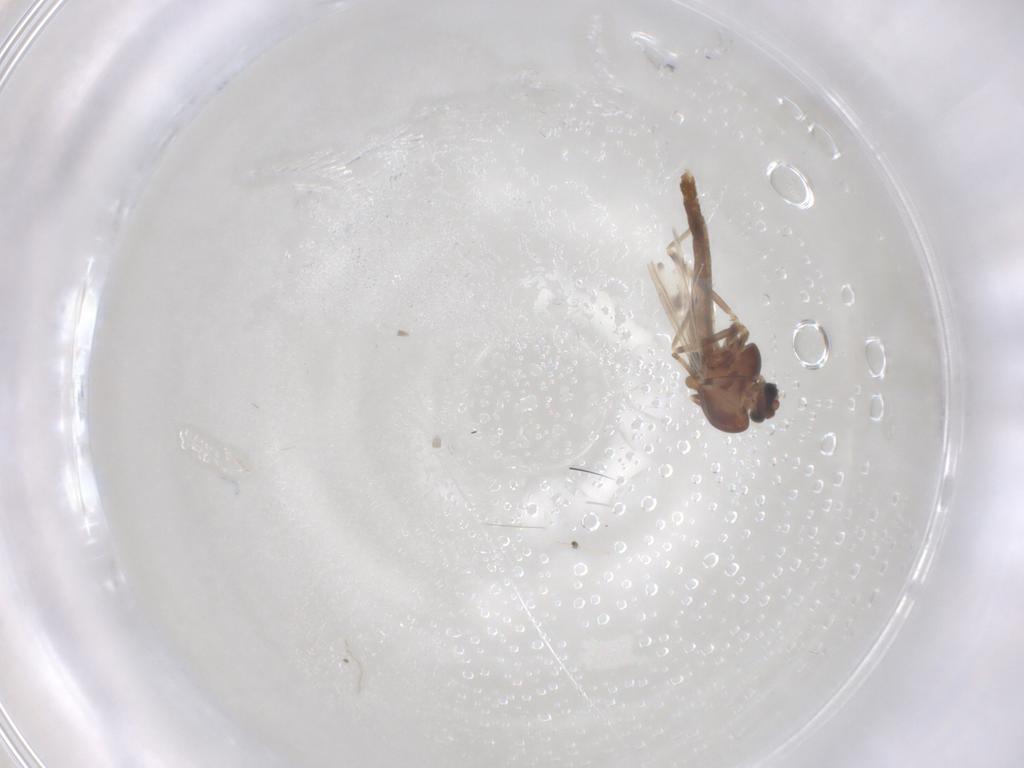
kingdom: Animalia
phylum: Arthropoda
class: Insecta
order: Diptera
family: Chironomidae
